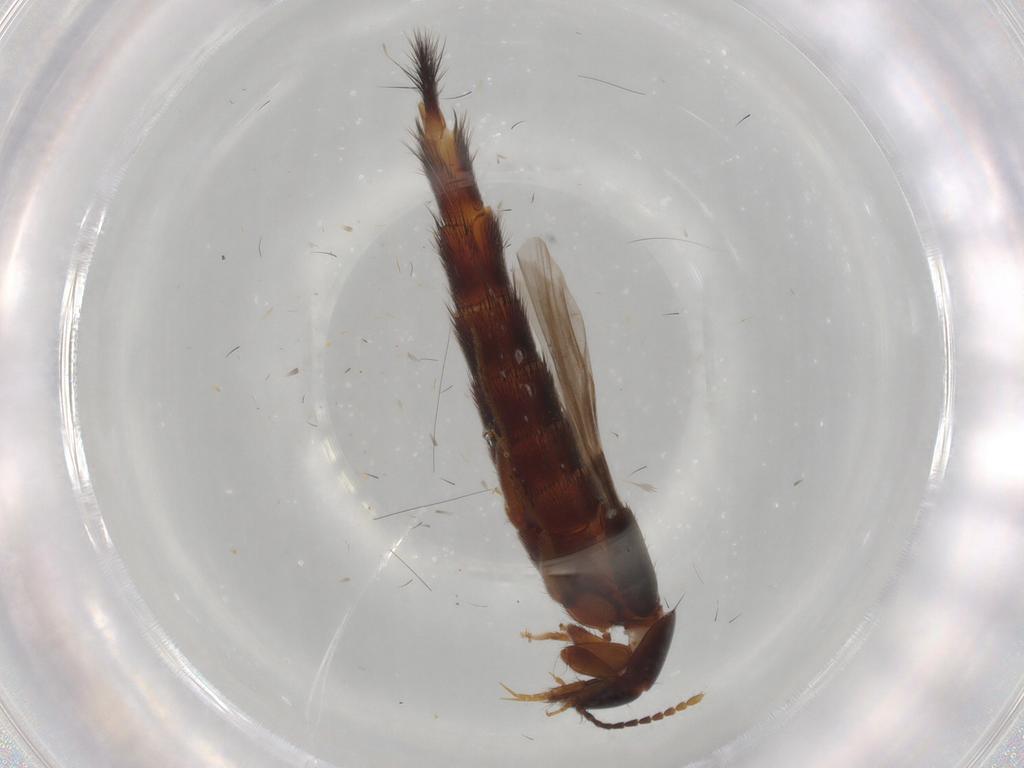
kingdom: Animalia
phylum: Arthropoda
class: Insecta
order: Coleoptera
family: Staphylinidae
